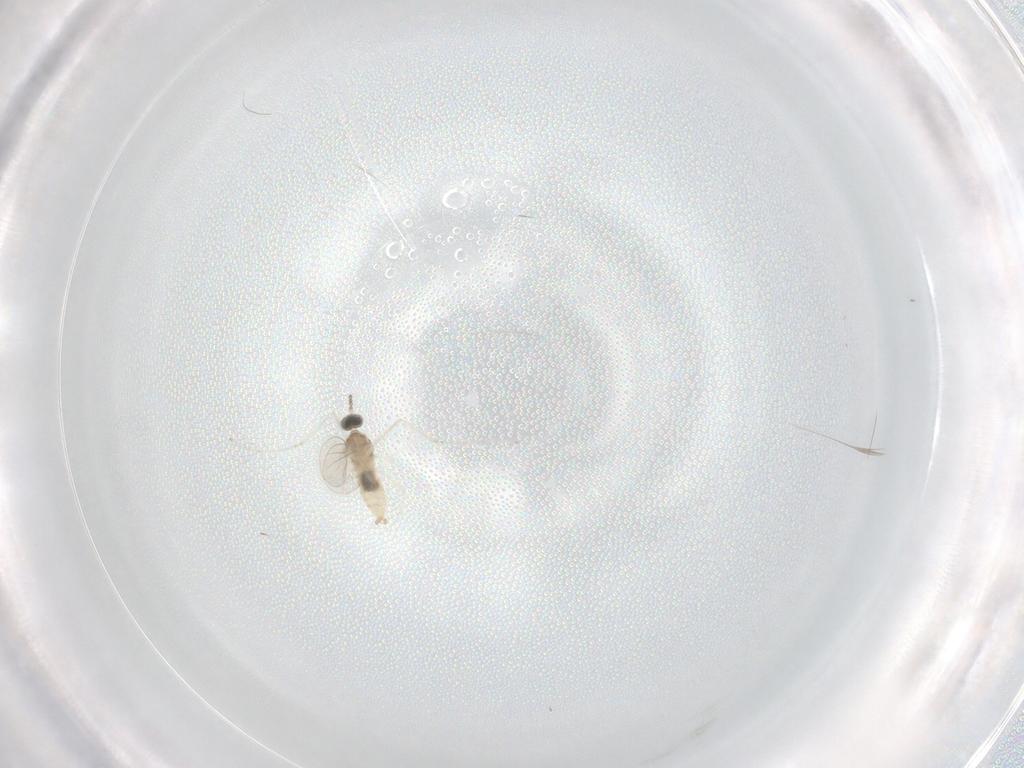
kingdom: Animalia
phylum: Arthropoda
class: Insecta
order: Diptera
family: Cecidomyiidae
